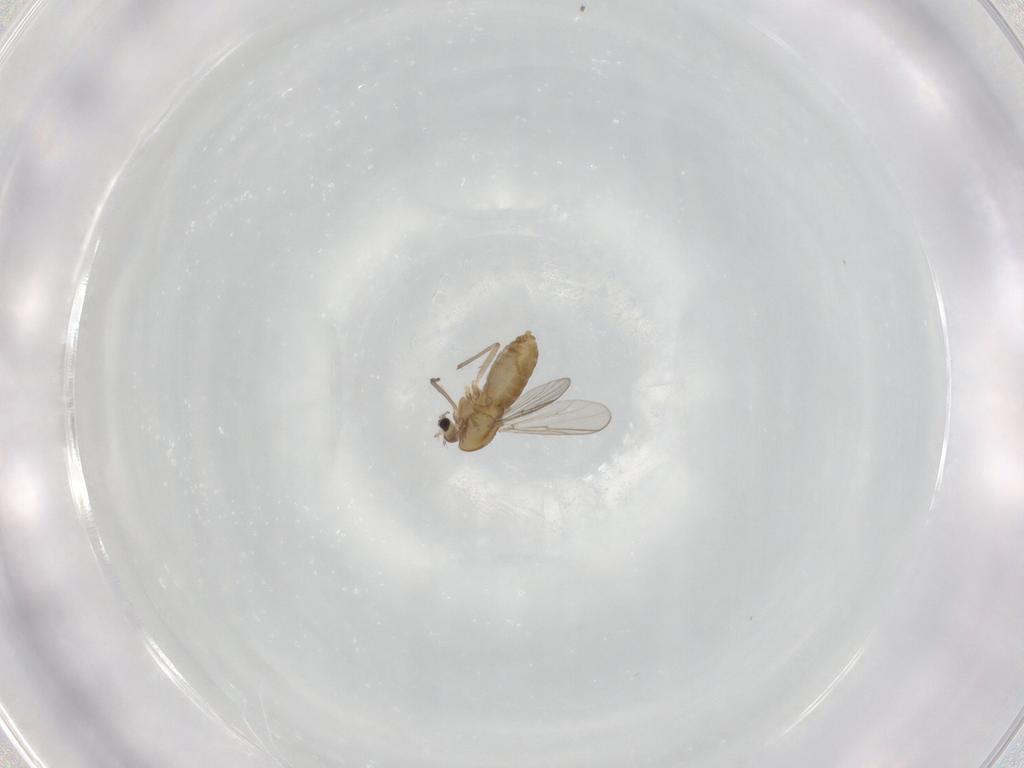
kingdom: Animalia
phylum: Arthropoda
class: Insecta
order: Diptera
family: Chironomidae
